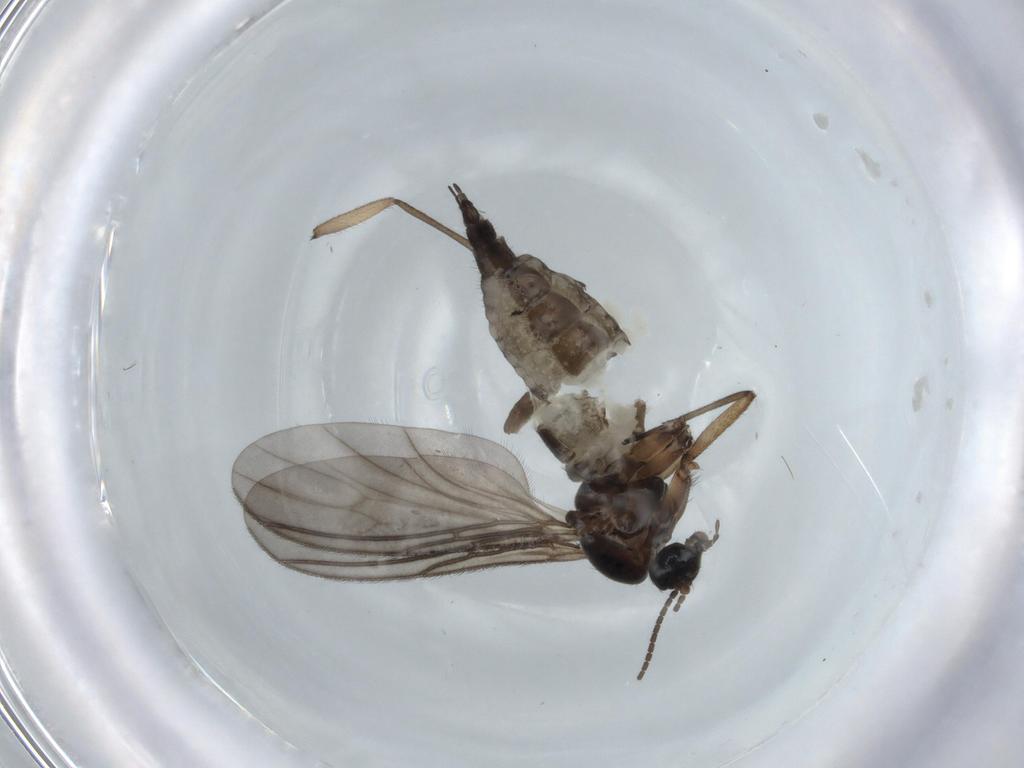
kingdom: Animalia
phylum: Arthropoda
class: Insecta
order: Diptera
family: Sciaridae
